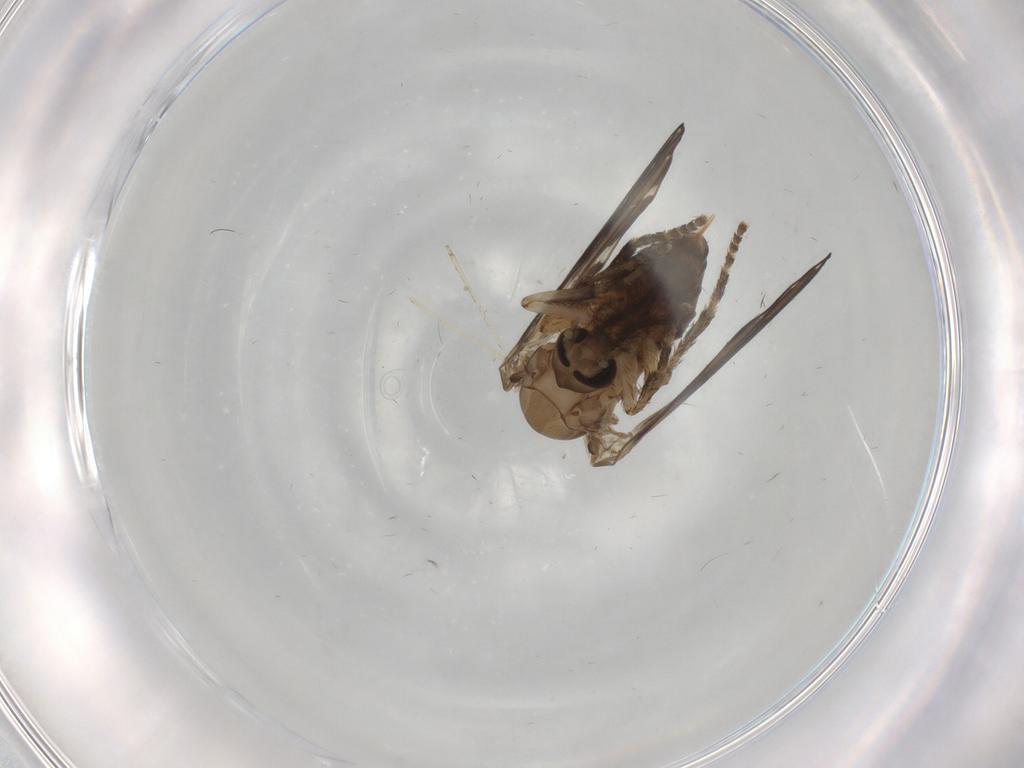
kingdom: Animalia
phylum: Arthropoda
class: Insecta
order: Diptera
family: Psychodidae
